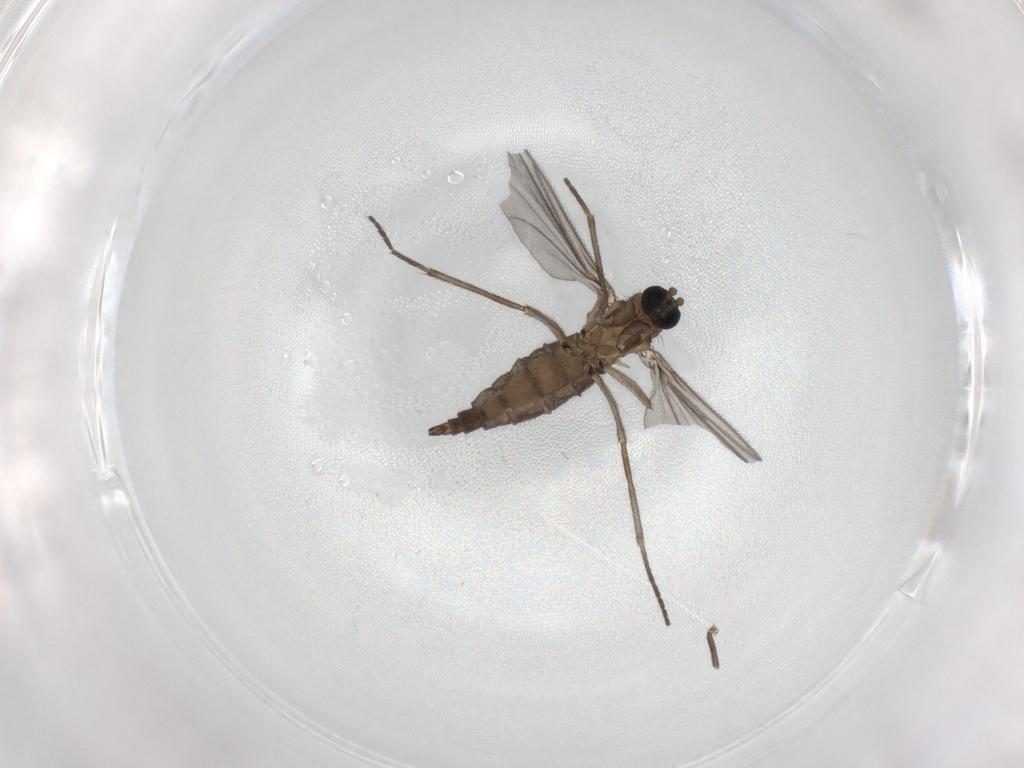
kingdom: Animalia
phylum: Arthropoda
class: Insecta
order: Diptera
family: Sciaridae
